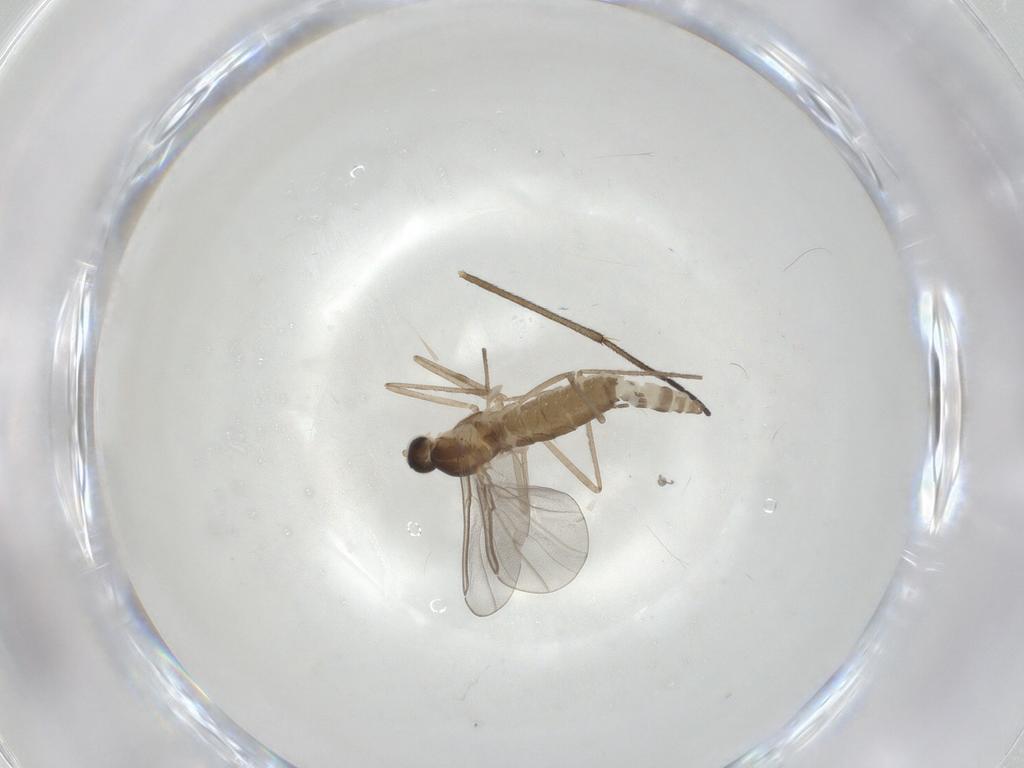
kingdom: Animalia
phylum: Arthropoda
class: Insecta
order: Diptera
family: Cecidomyiidae
